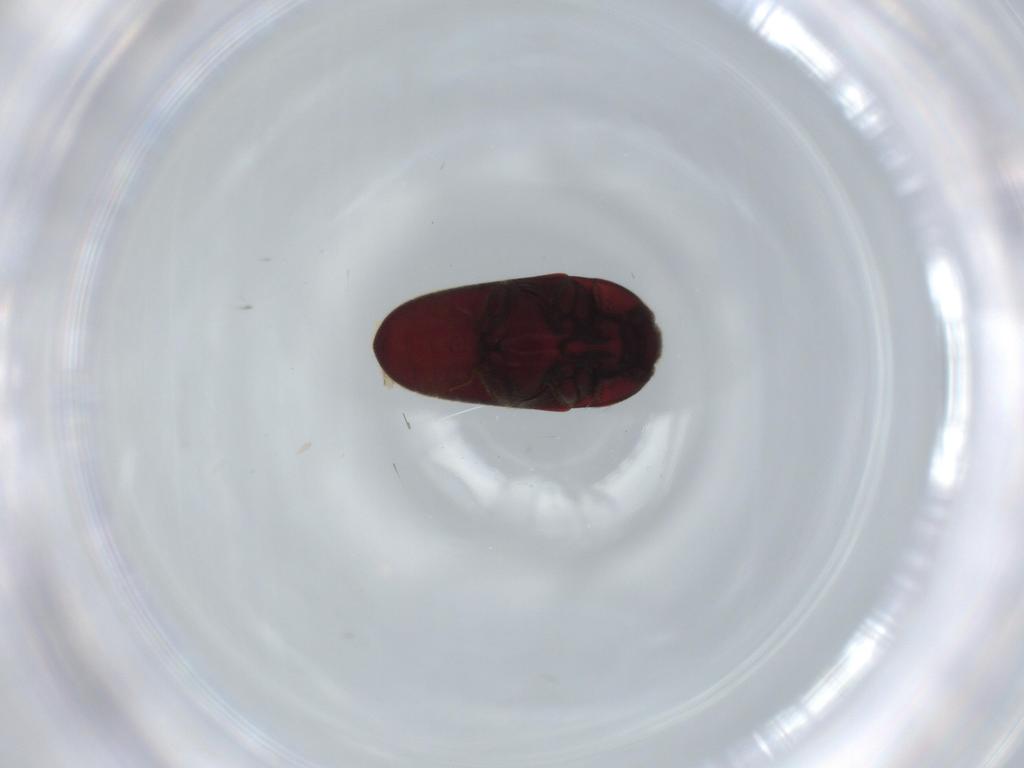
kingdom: Animalia
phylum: Arthropoda
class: Insecta
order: Coleoptera
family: Throscidae
